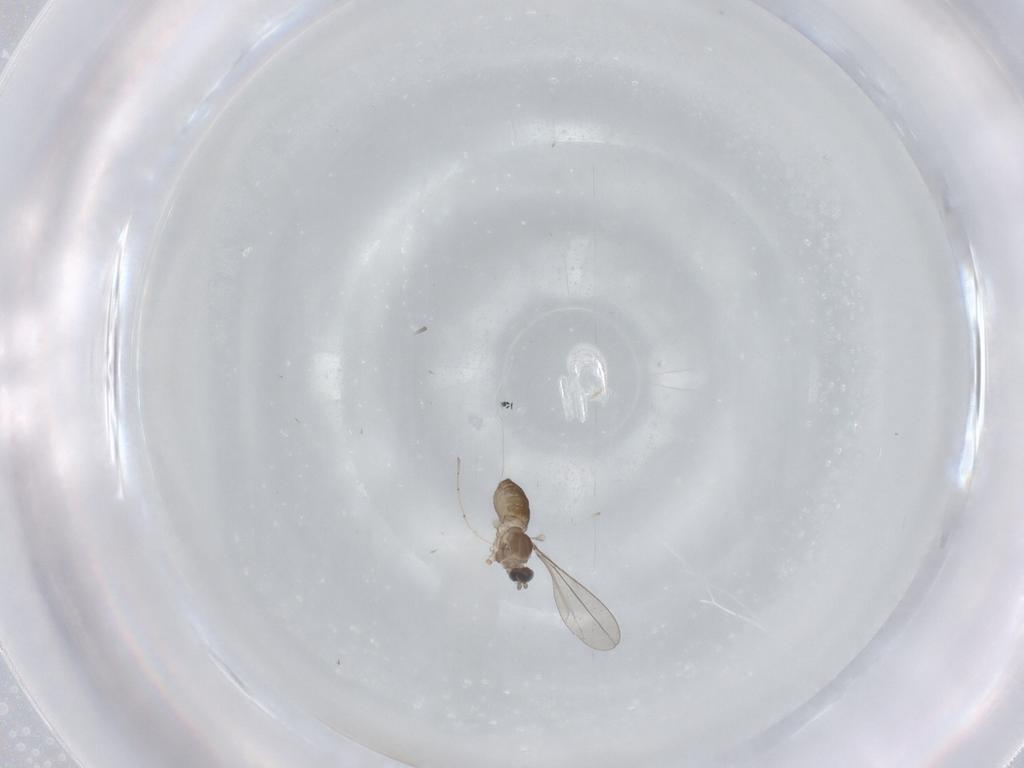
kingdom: Animalia
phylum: Arthropoda
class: Insecta
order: Diptera
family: Cecidomyiidae
